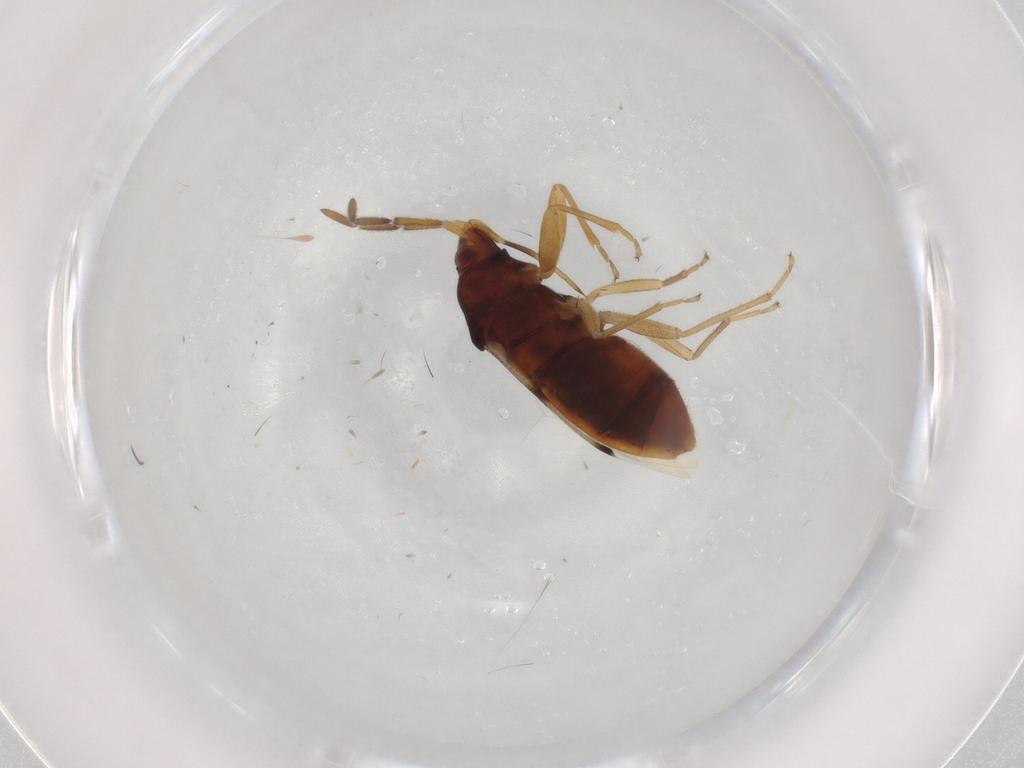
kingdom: Animalia
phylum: Arthropoda
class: Insecta
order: Hemiptera
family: Rhyparochromidae
